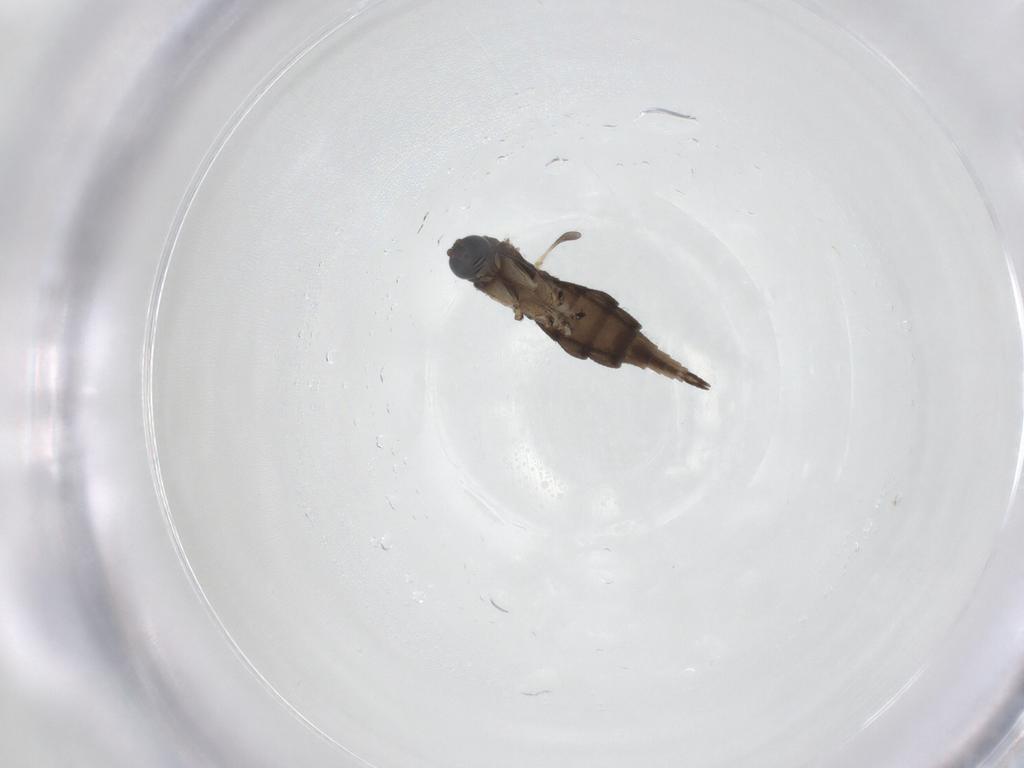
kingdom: Animalia
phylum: Arthropoda
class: Insecta
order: Diptera
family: Sciaridae
